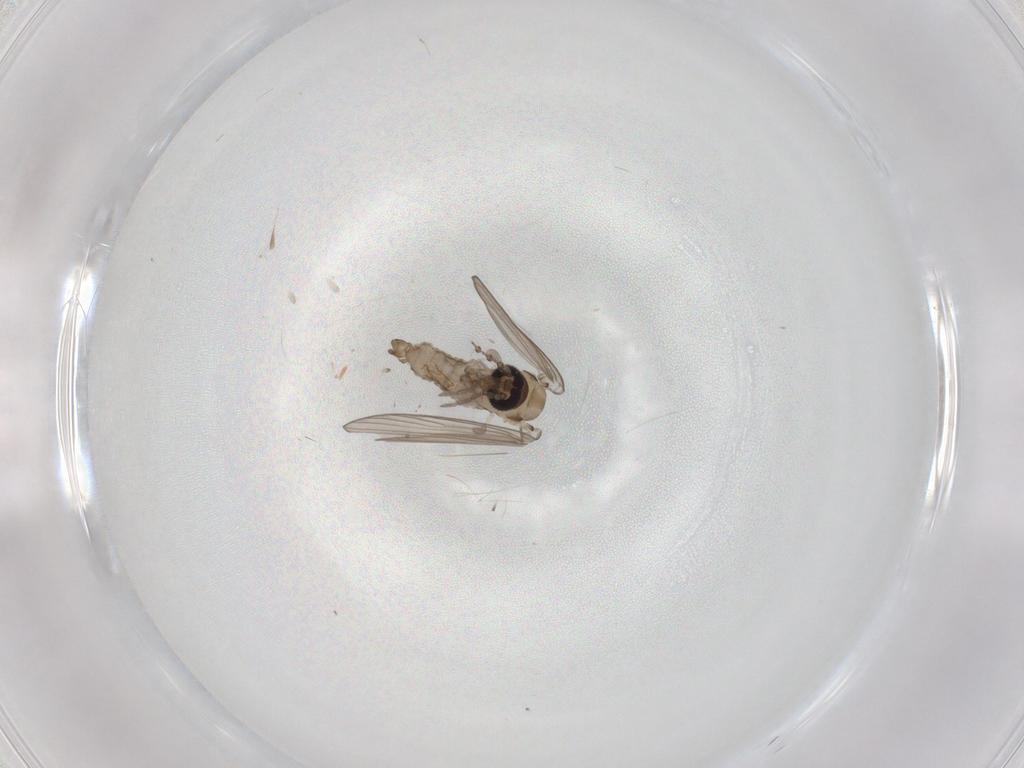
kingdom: Animalia
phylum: Arthropoda
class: Insecta
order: Diptera
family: Psychodidae
